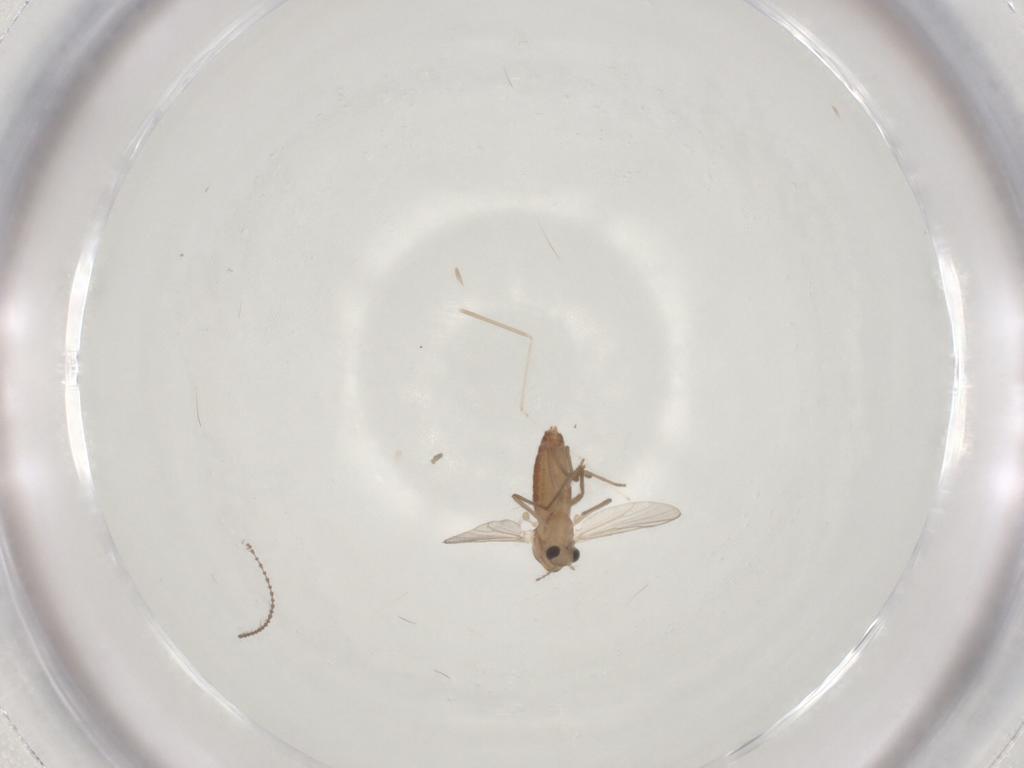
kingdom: Animalia
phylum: Arthropoda
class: Insecta
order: Diptera
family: Cecidomyiidae
